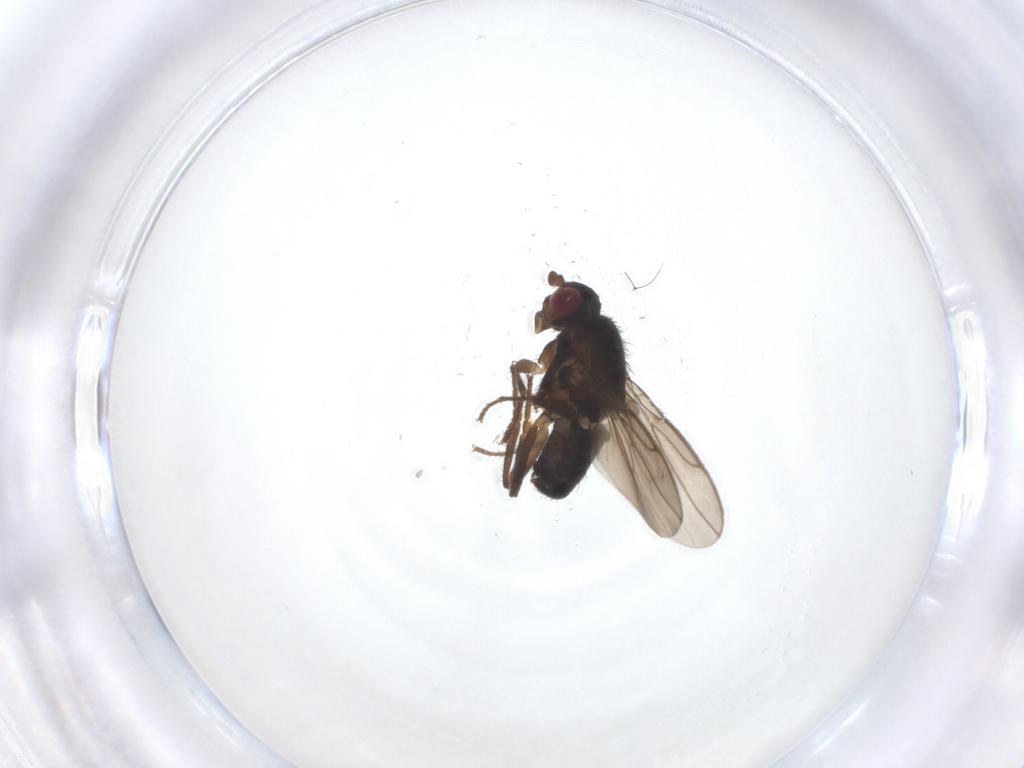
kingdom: Animalia
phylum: Arthropoda
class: Insecta
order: Diptera
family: Sphaeroceridae
